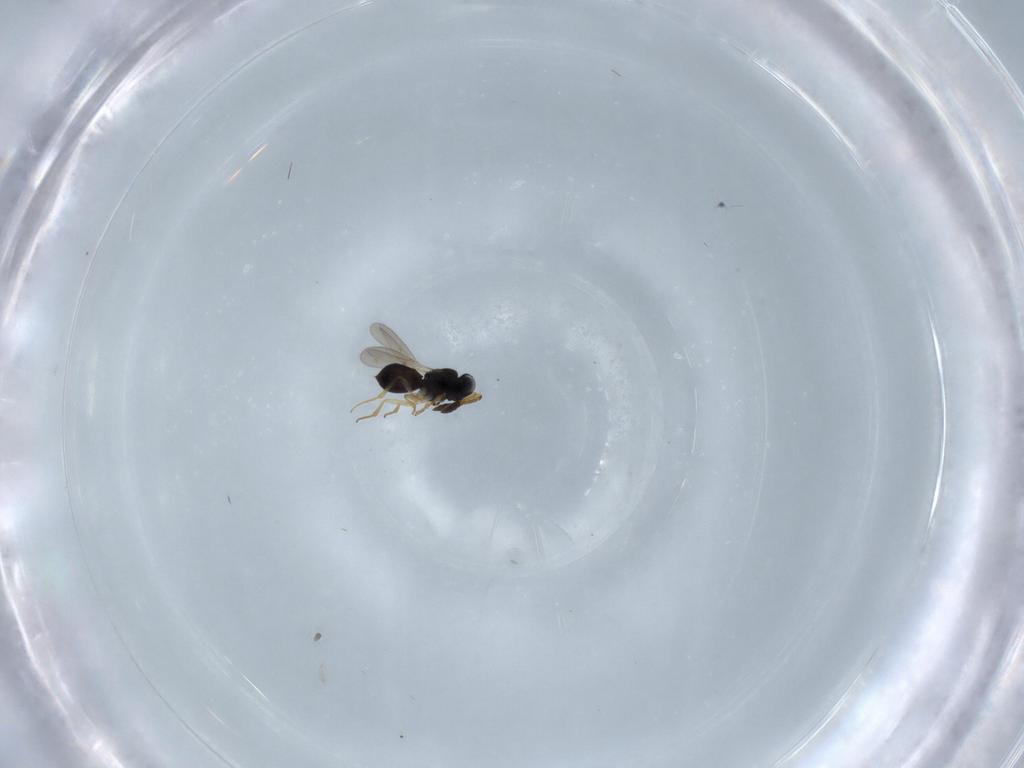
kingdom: Animalia
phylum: Arthropoda
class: Insecta
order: Hymenoptera
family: Scelionidae
